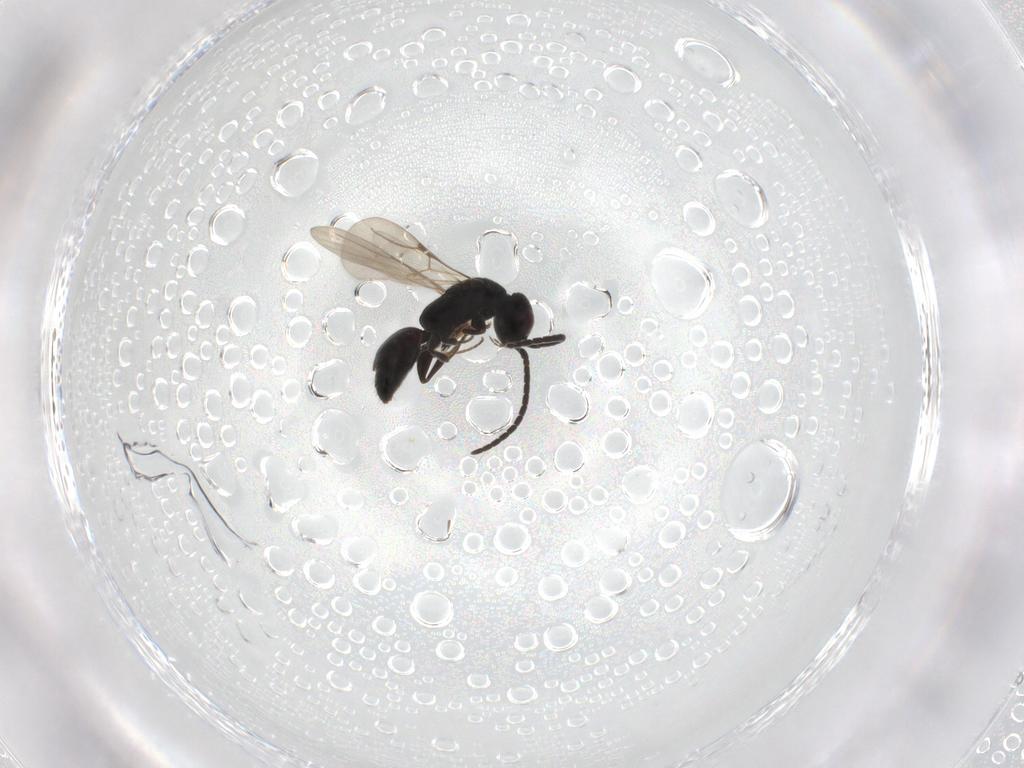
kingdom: Animalia
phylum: Arthropoda
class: Insecta
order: Hymenoptera
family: Bethylidae
